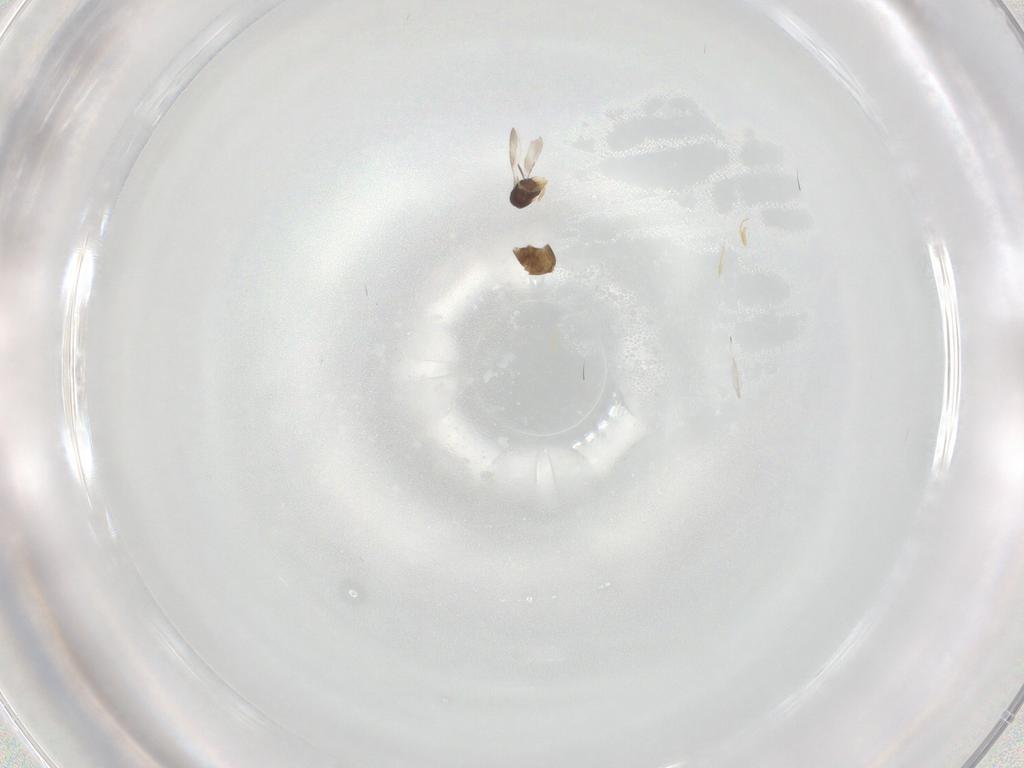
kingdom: Animalia
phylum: Arthropoda
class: Insecta
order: Hymenoptera
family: Ichneumonidae
